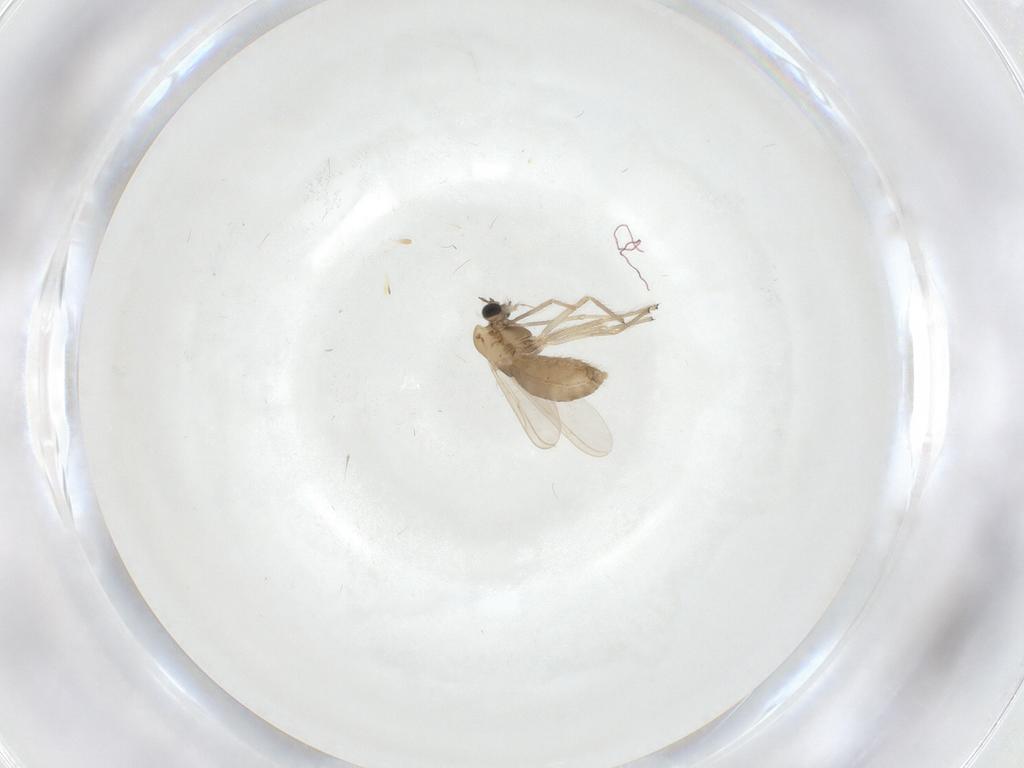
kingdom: Animalia
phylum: Arthropoda
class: Insecta
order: Diptera
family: Chironomidae
